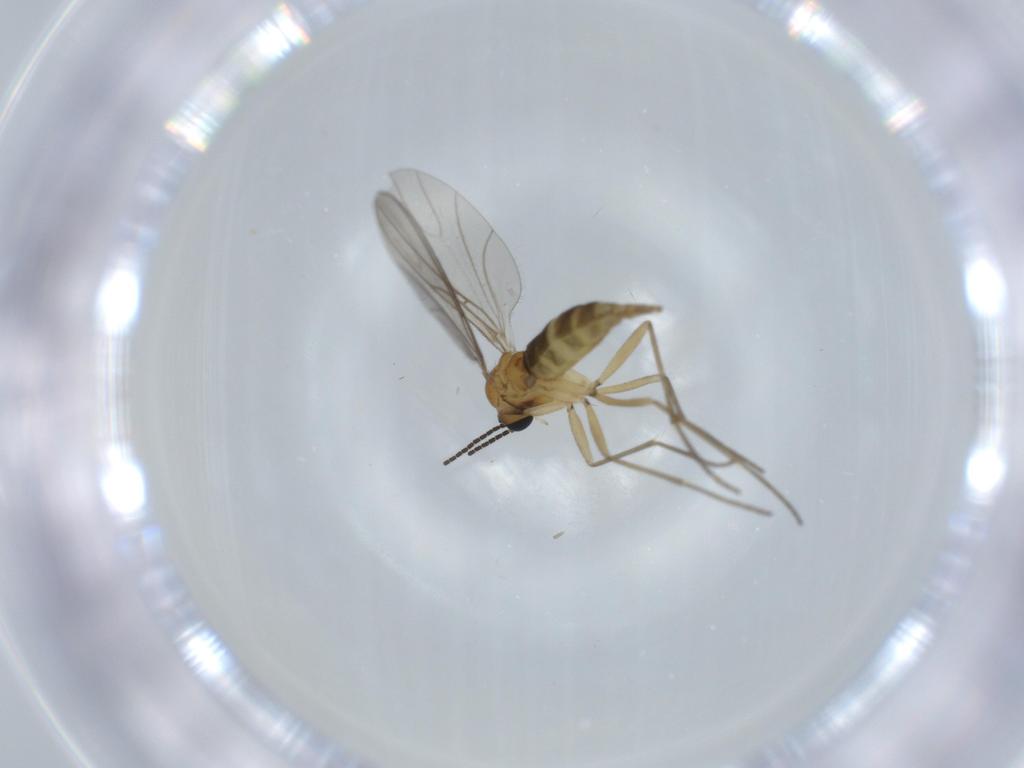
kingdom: Animalia
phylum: Arthropoda
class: Insecta
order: Diptera
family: Sciaridae
